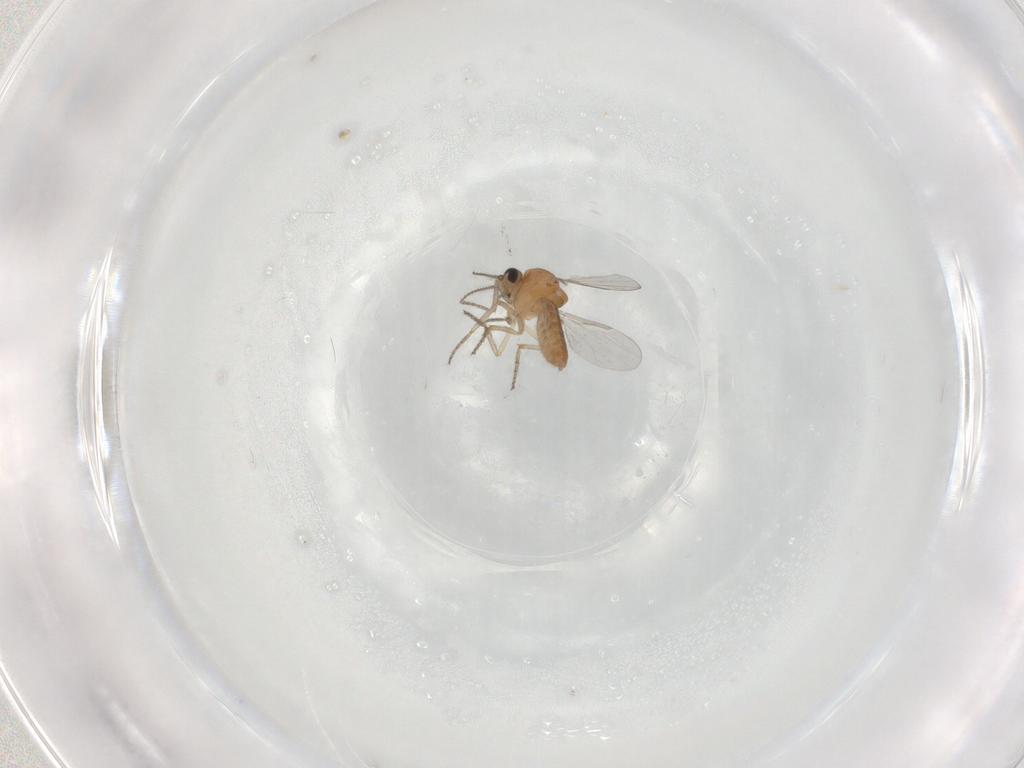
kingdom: Animalia
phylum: Arthropoda
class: Insecta
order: Diptera
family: Ceratopogonidae
